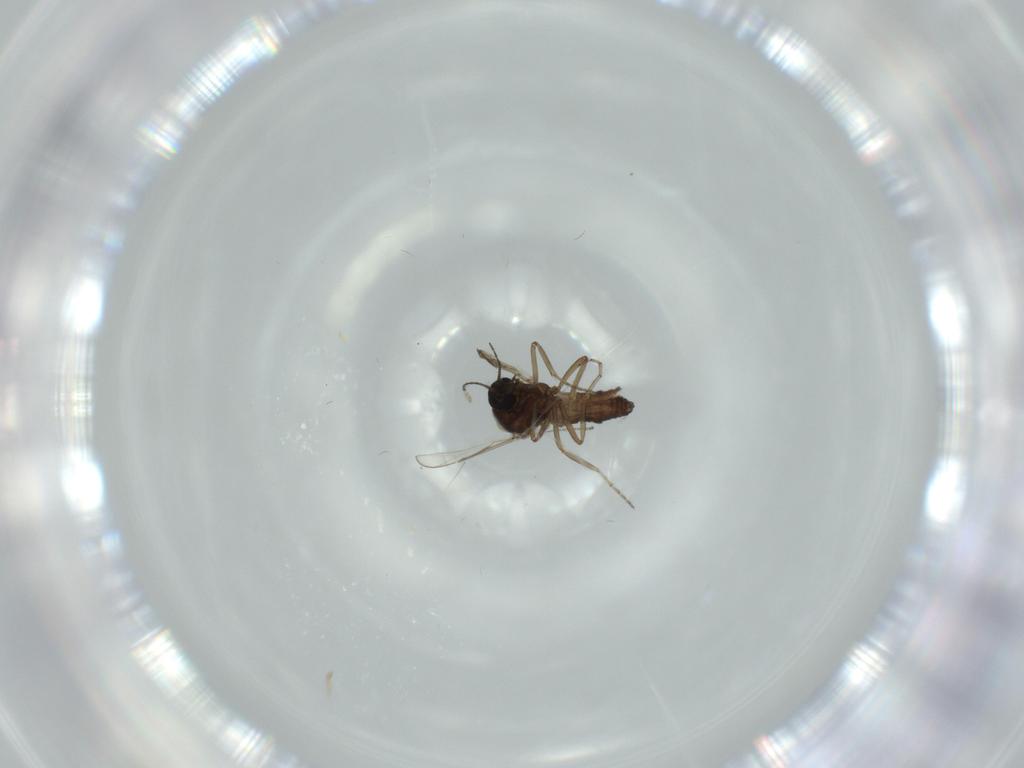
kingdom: Animalia
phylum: Arthropoda
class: Insecta
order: Diptera
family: Scatopsidae
